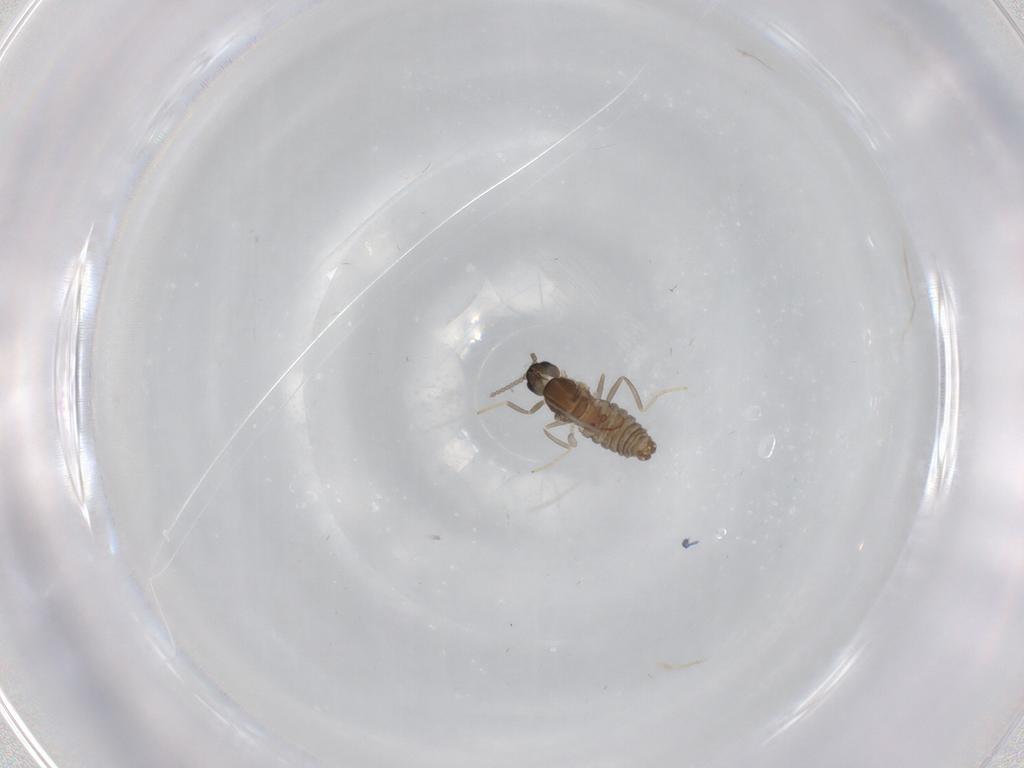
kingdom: Animalia
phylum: Arthropoda
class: Insecta
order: Diptera
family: Cecidomyiidae
